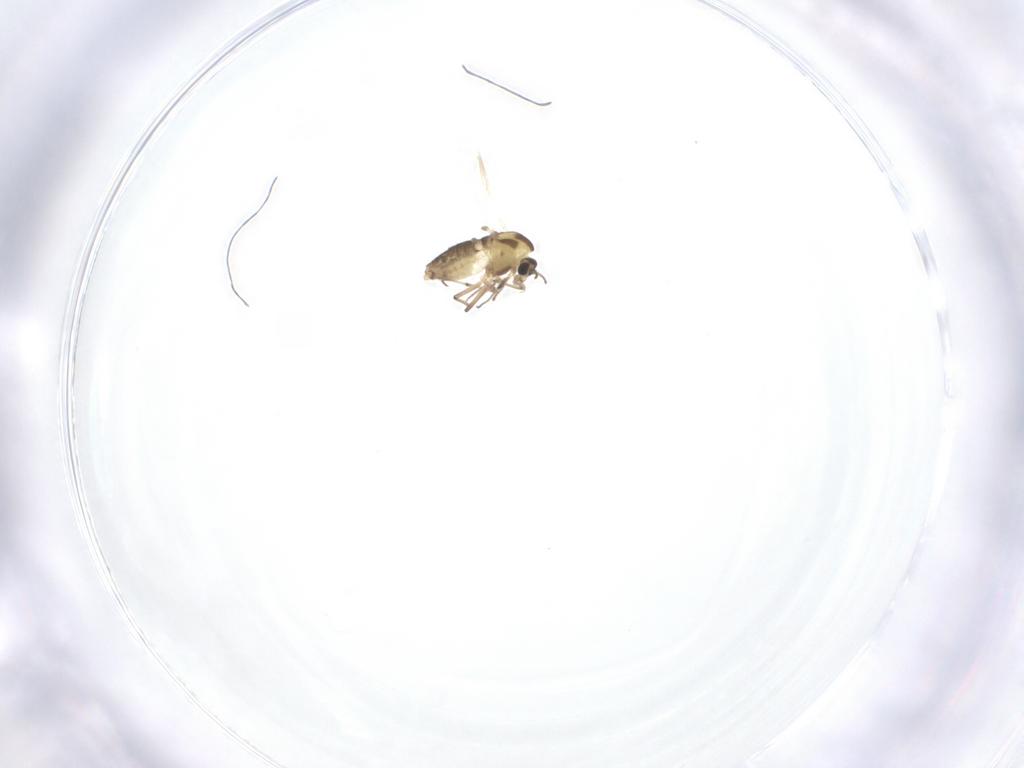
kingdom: Animalia
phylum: Arthropoda
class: Insecta
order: Diptera
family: Chironomidae
